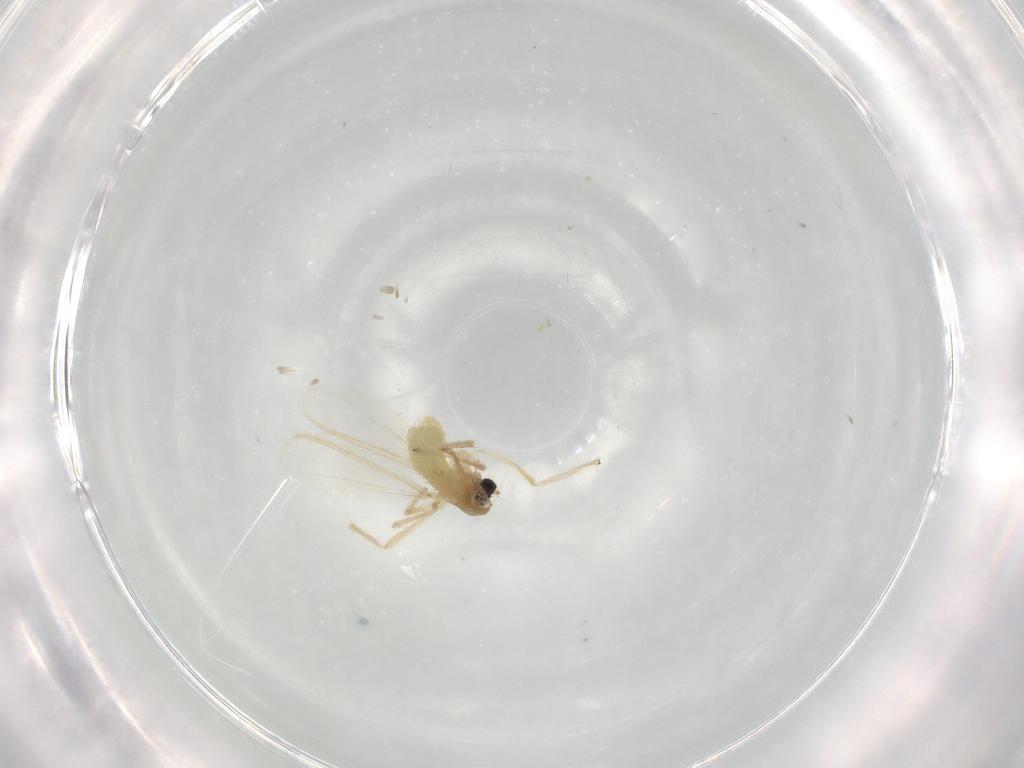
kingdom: Animalia
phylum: Arthropoda
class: Insecta
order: Diptera
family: Chironomidae
